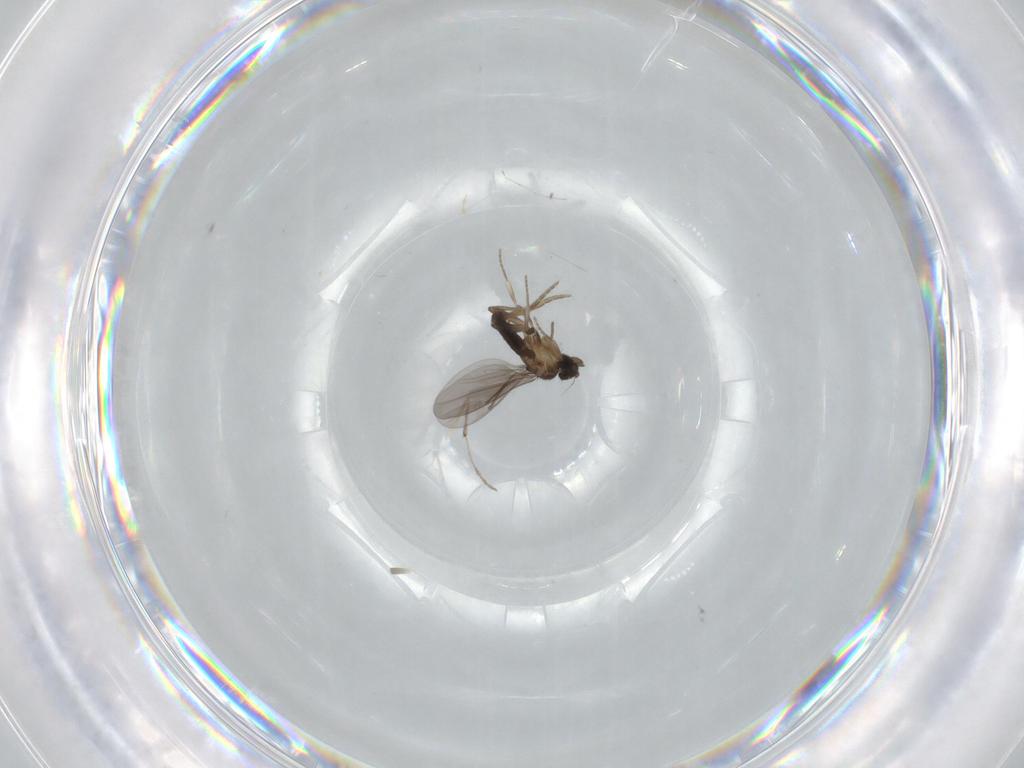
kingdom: Animalia
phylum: Arthropoda
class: Insecta
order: Diptera
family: Chironomidae
